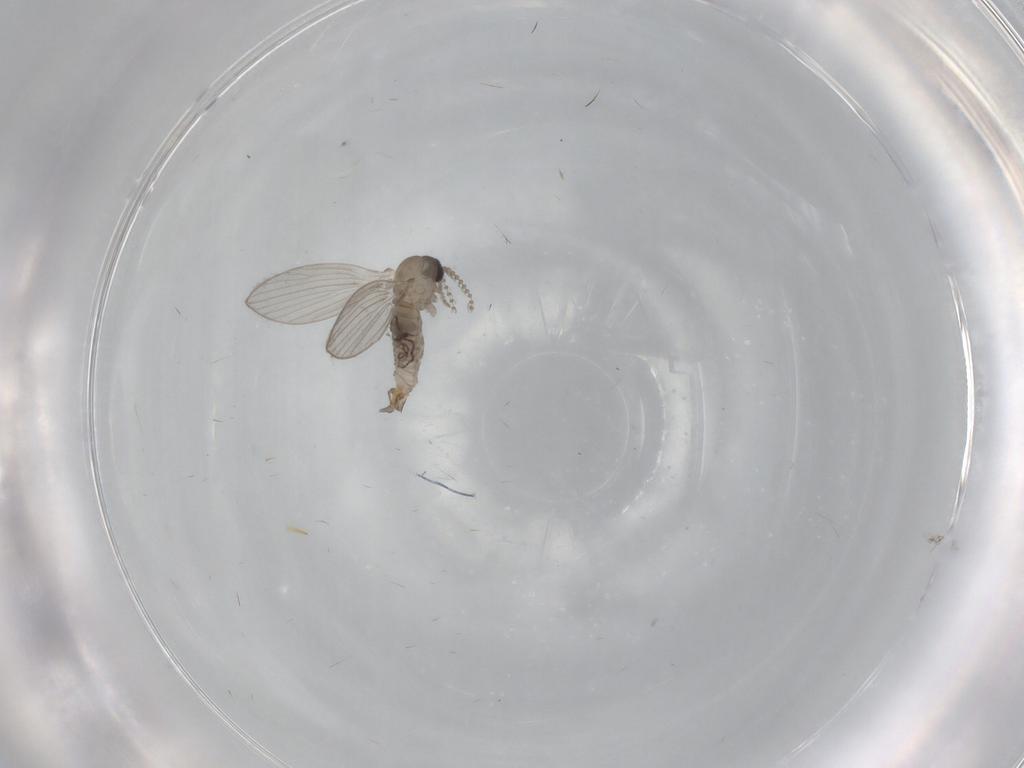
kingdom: Animalia
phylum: Arthropoda
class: Insecta
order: Diptera
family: Psychodidae
